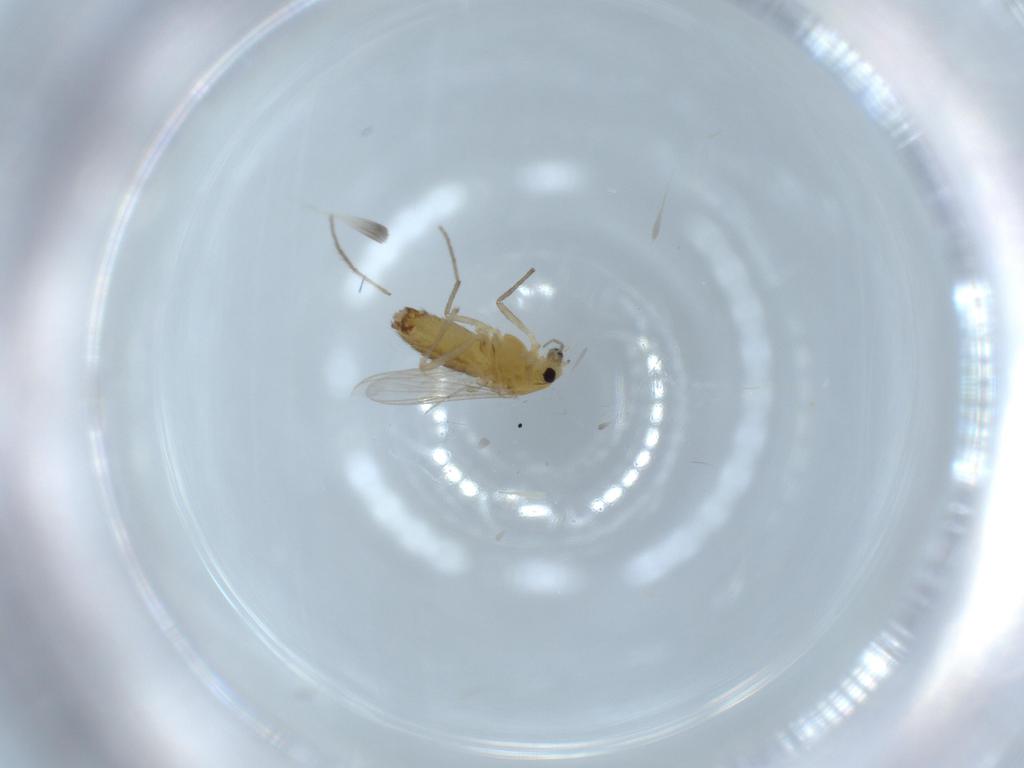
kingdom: Animalia
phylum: Arthropoda
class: Insecta
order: Diptera
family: Chironomidae
